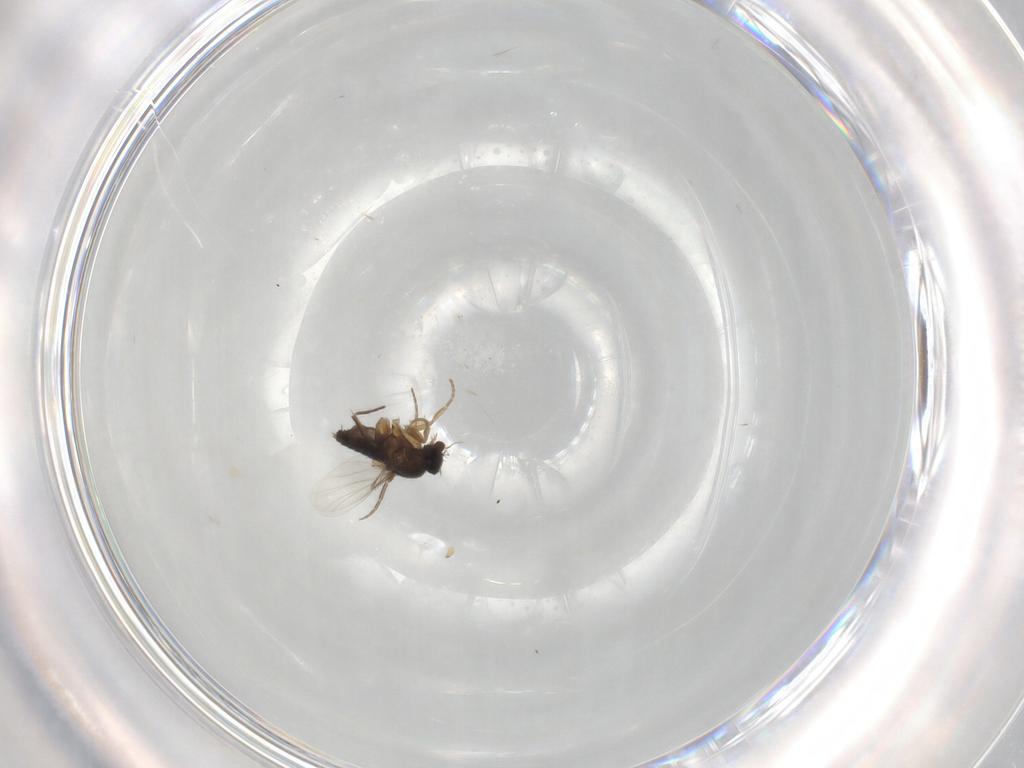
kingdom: Animalia
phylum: Arthropoda
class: Insecta
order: Diptera
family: Phoridae
